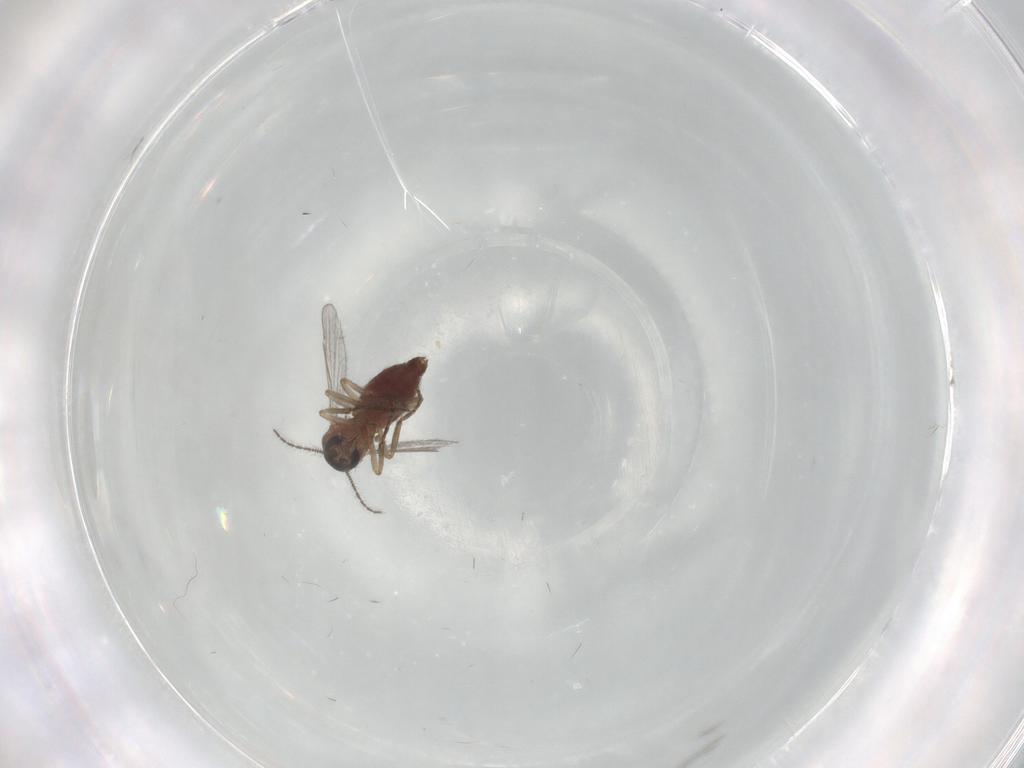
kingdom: Animalia
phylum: Arthropoda
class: Insecta
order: Diptera
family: Ceratopogonidae
